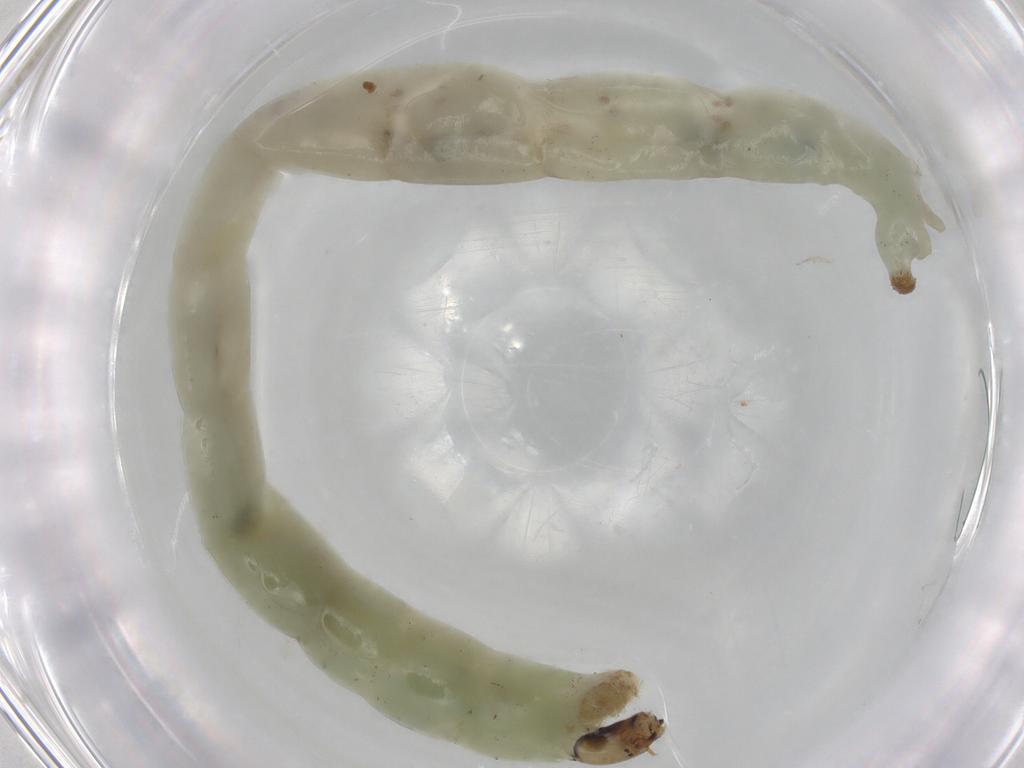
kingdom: Animalia
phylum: Arthropoda
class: Insecta
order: Diptera
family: Chironomidae
